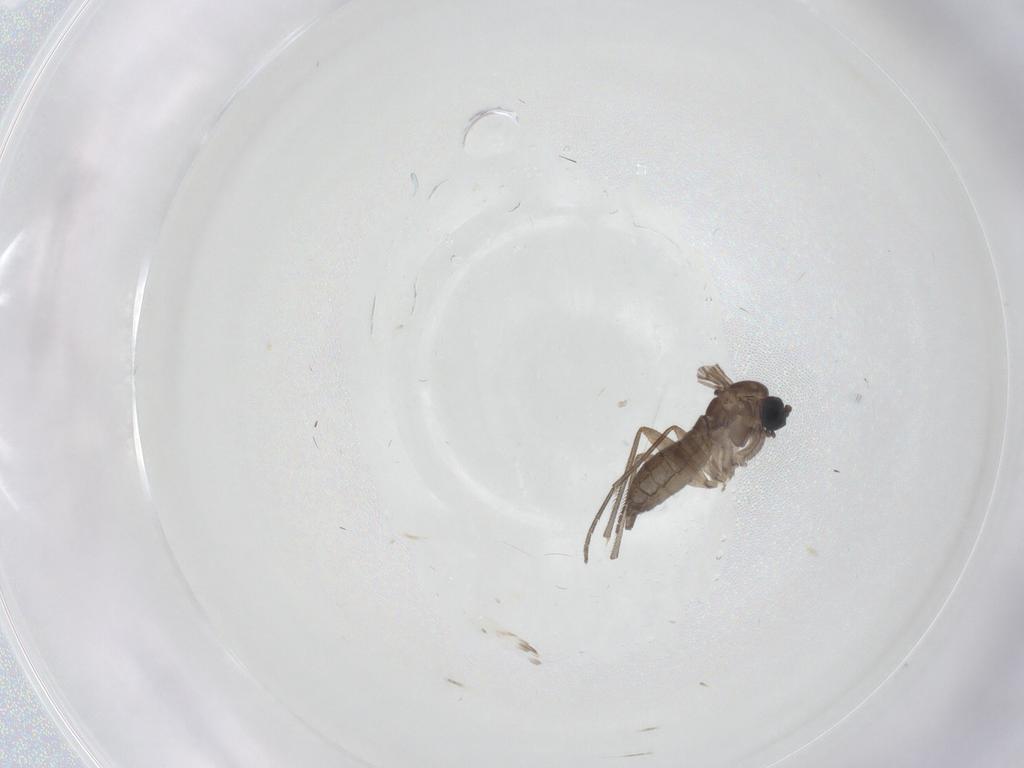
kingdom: Animalia
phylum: Arthropoda
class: Insecta
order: Diptera
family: Sciaridae
